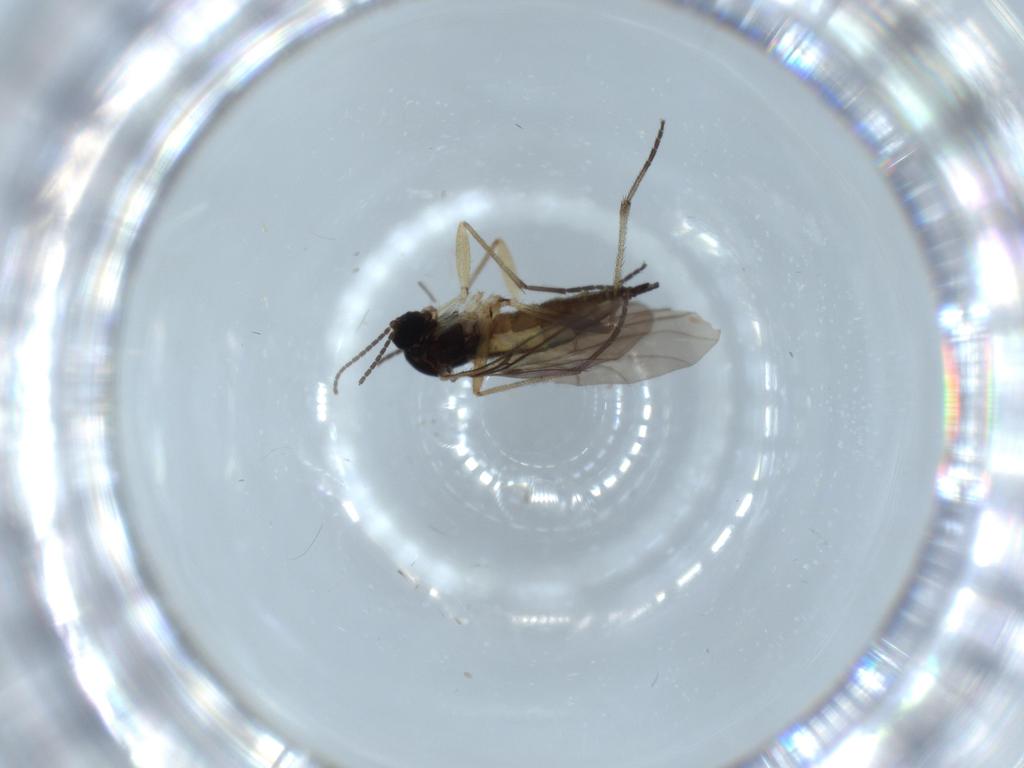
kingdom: Animalia
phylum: Arthropoda
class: Insecta
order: Diptera
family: Sciaridae
